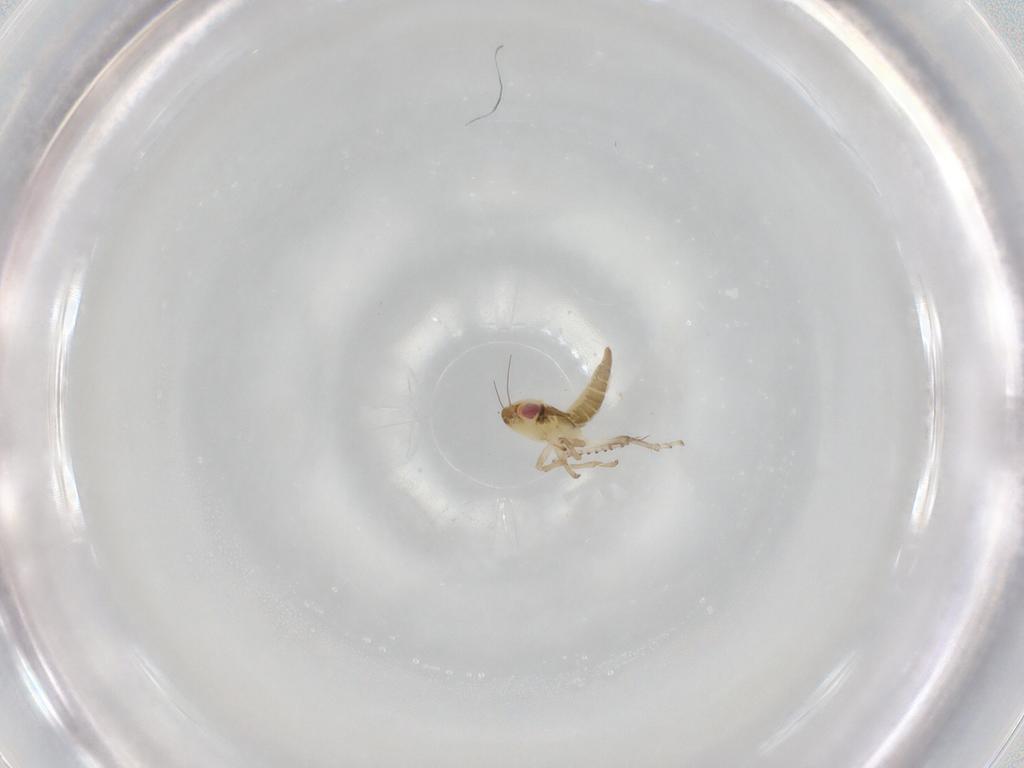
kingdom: Animalia
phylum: Arthropoda
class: Insecta
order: Hemiptera
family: Cicadellidae
